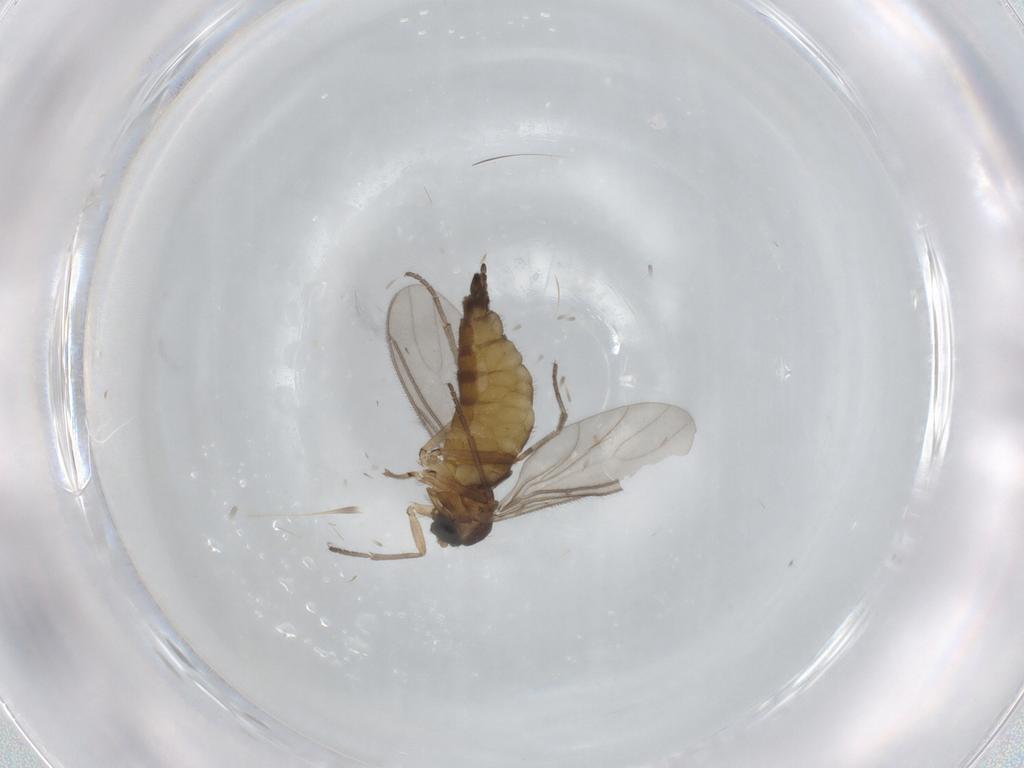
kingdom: Animalia
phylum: Arthropoda
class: Insecta
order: Diptera
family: Sciaridae
